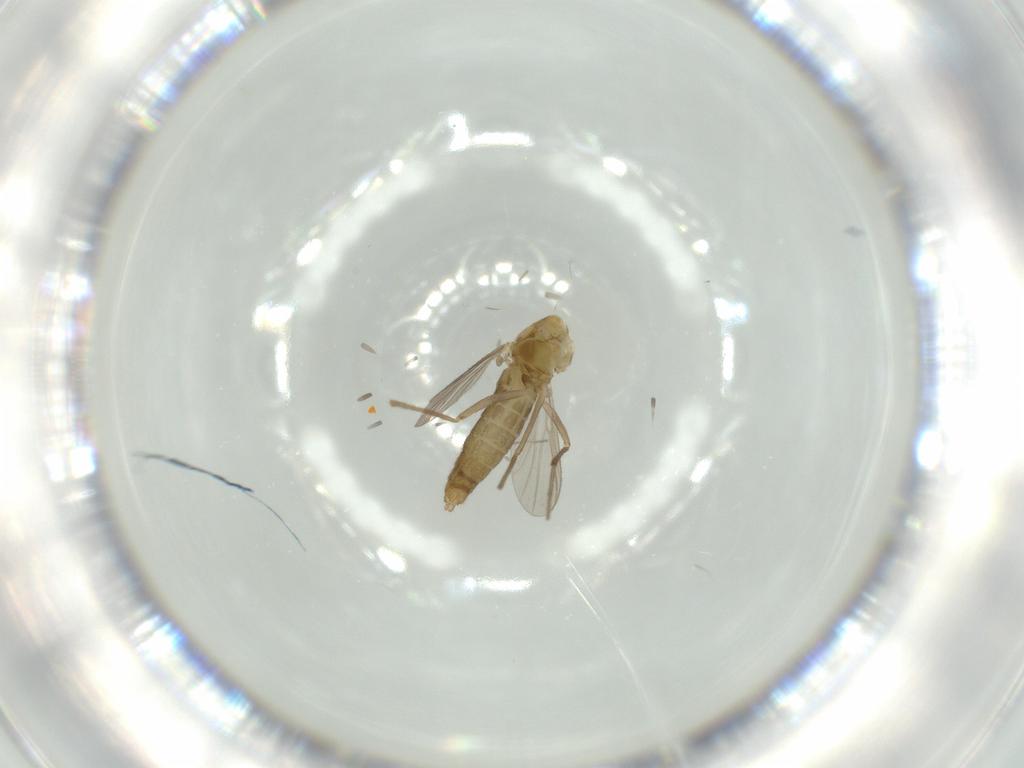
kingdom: Animalia
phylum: Arthropoda
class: Insecta
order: Diptera
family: Chironomidae
